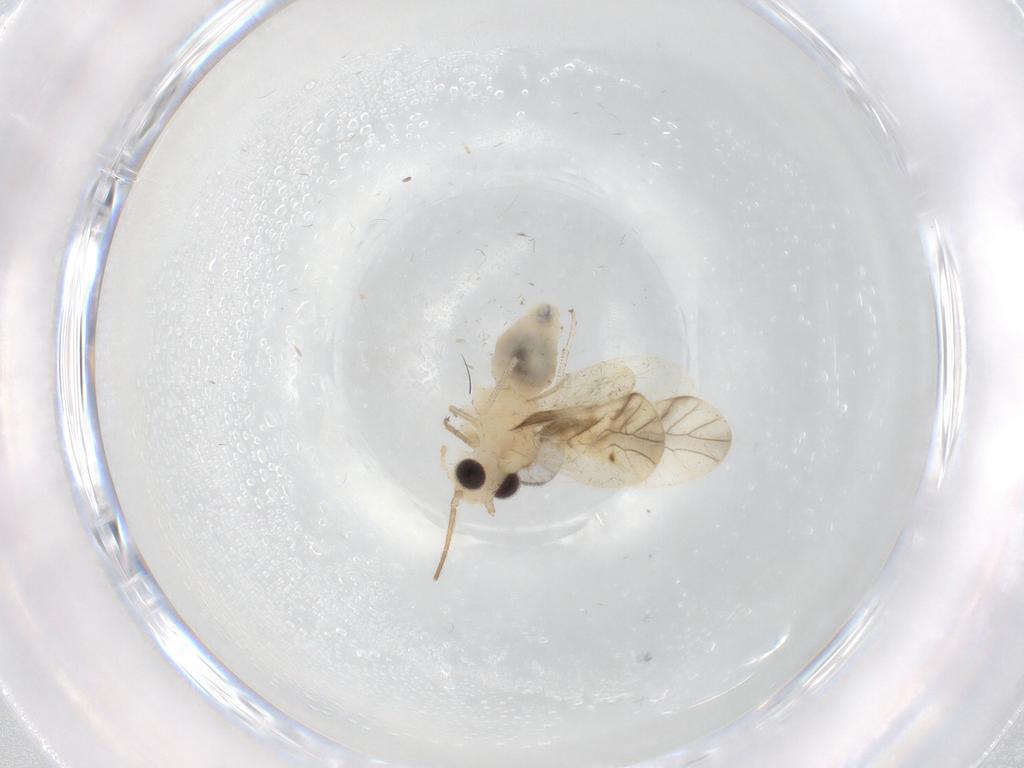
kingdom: Animalia
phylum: Arthropoda
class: Insecta
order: Psocodea
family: Caeciliusidae
